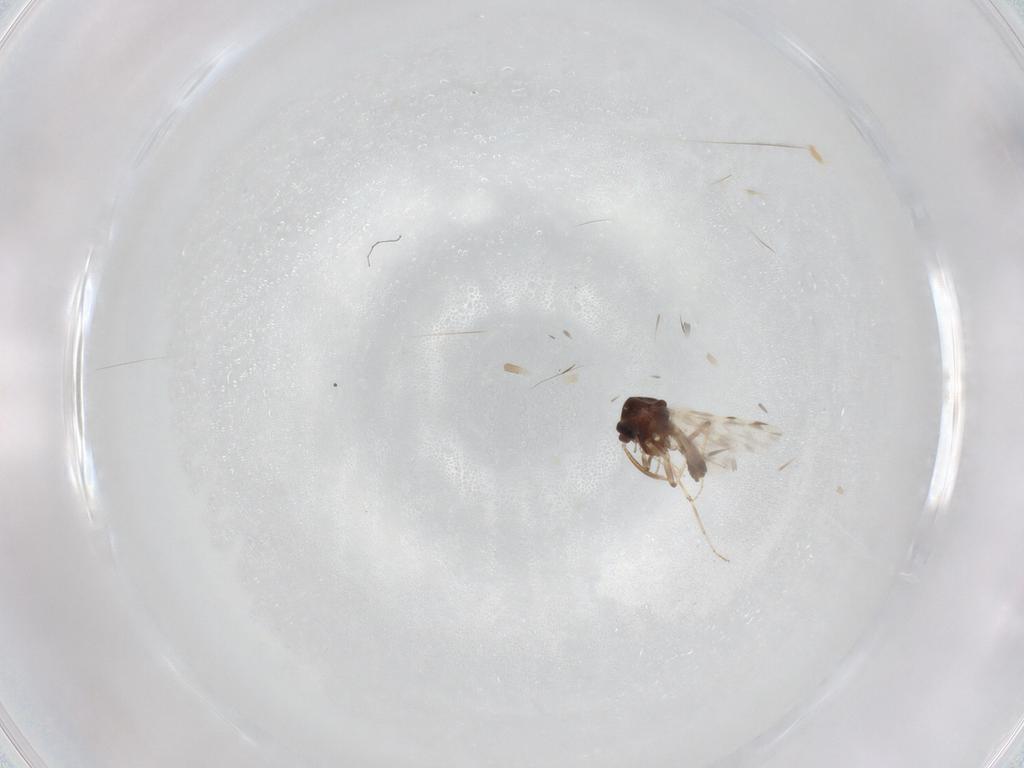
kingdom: Animalia
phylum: Arthropoda
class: Insecta
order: Diptera
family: Ceratopogonidae
